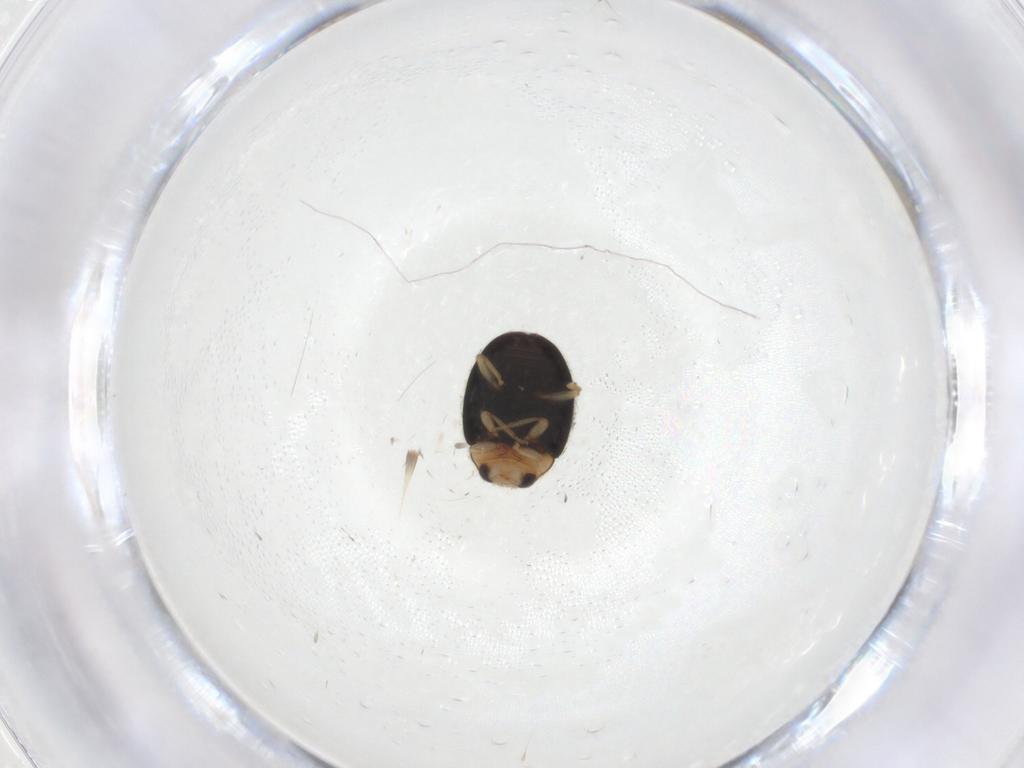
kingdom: Animalia
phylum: Arthropoda
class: Insecta
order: Coleoptera
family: Coccinellidae
